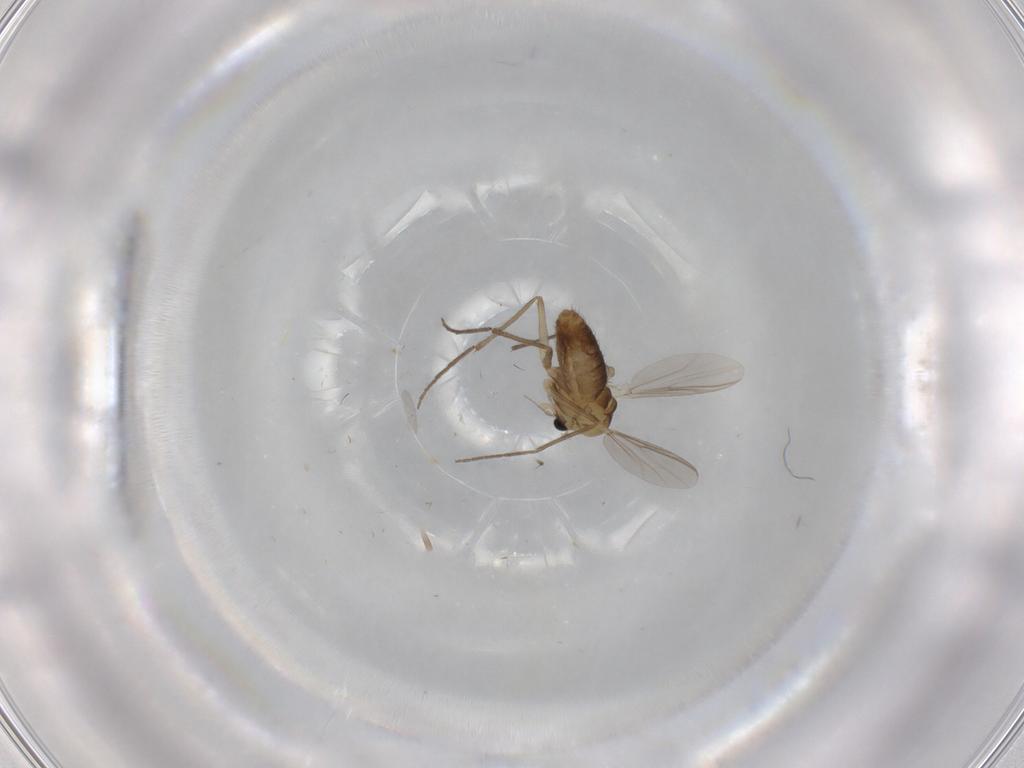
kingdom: Animalia
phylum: Arthropoda
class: Insecta
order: Diptera
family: Chironomidae
